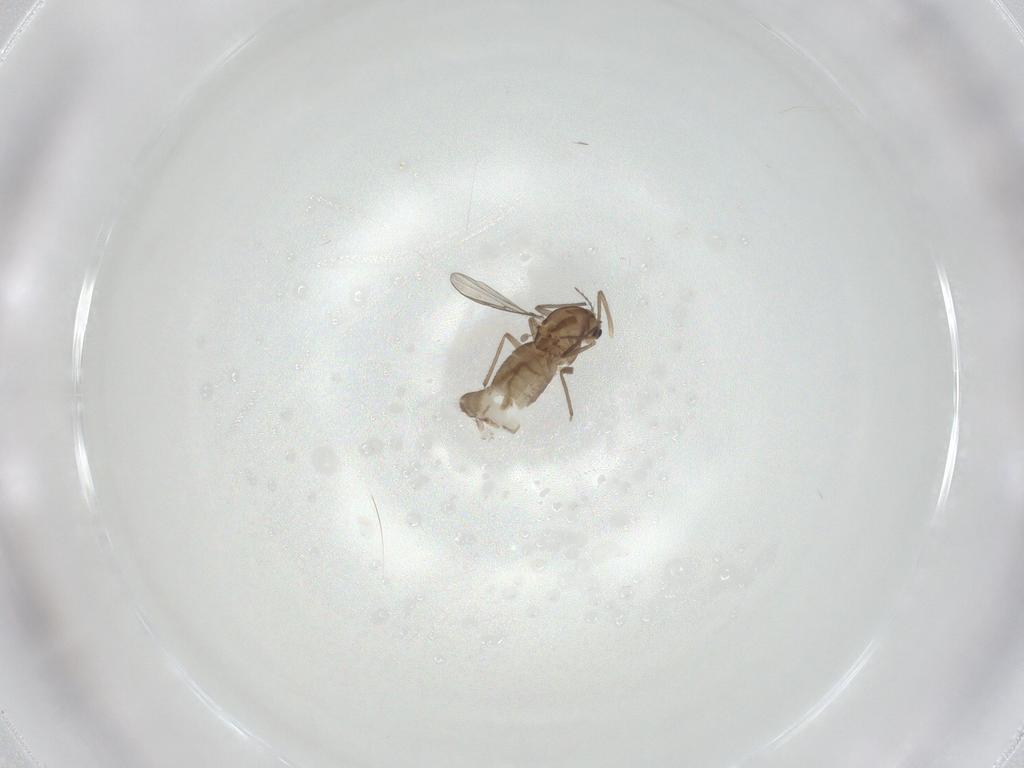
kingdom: Animalia
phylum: Arthropoda
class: Insecta
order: Diptera
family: Chironomidae
